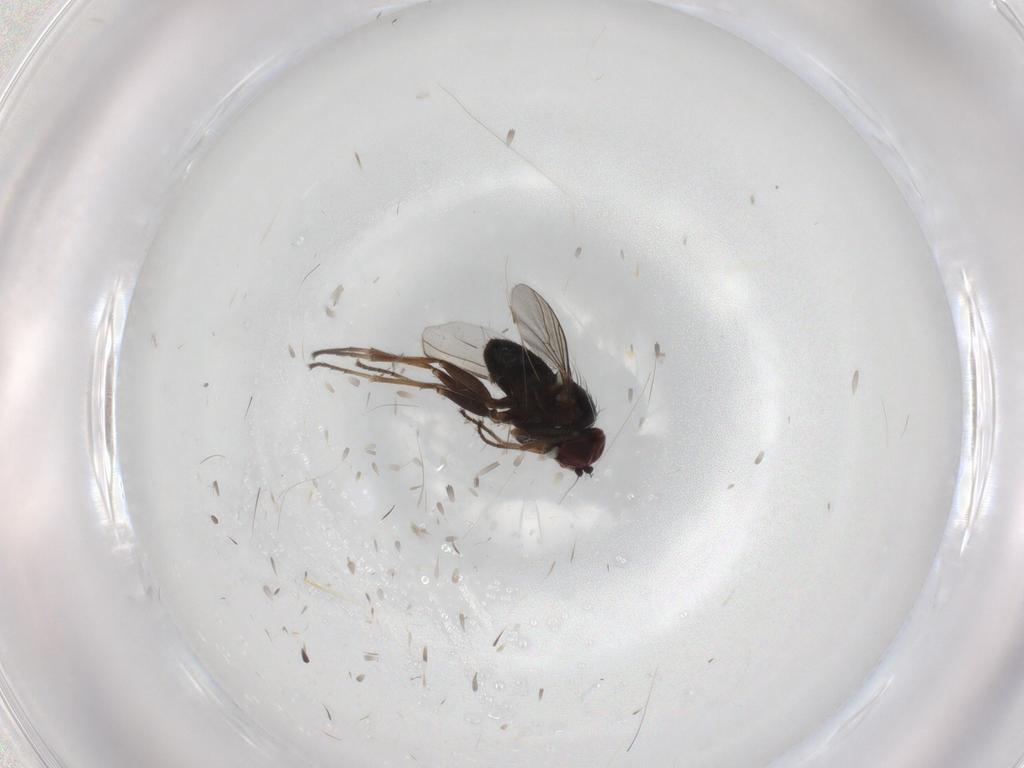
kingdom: Animalia
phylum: Arthropoda
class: Insecta
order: Diptera
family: Dolichopodidae
